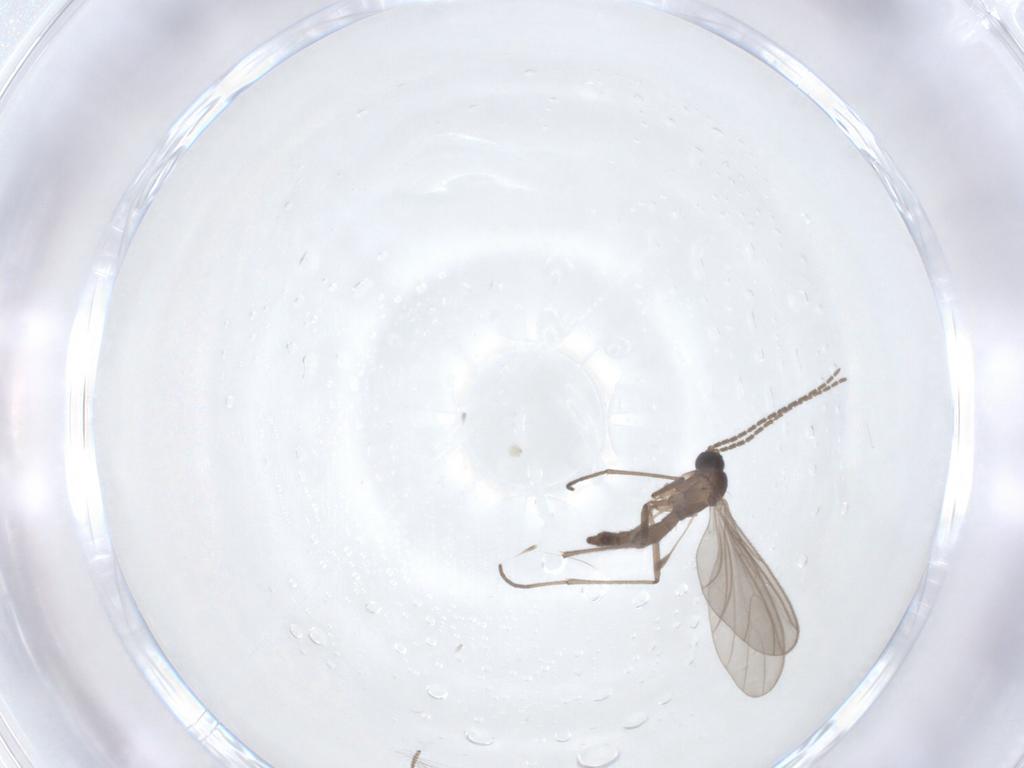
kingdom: Animalia
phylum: Arthropoda
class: Insecta
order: Diptera
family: Sciaridae
